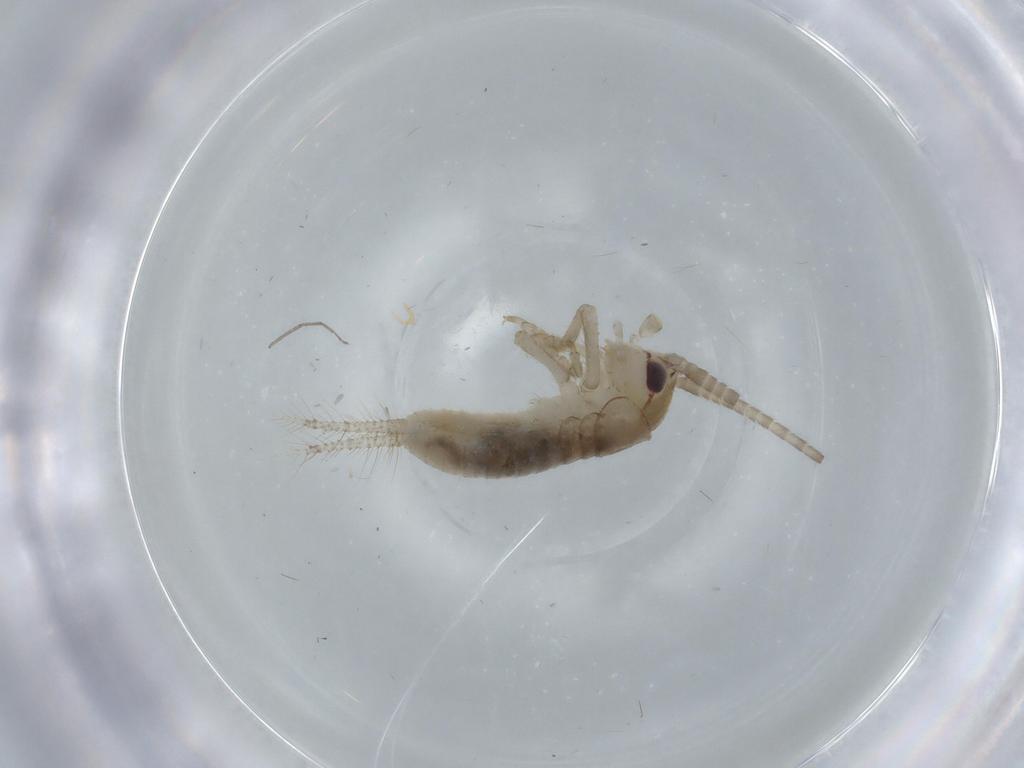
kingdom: Animalia
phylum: Arthropoda
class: Insecta
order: Orthoptera
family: Gryllidae
